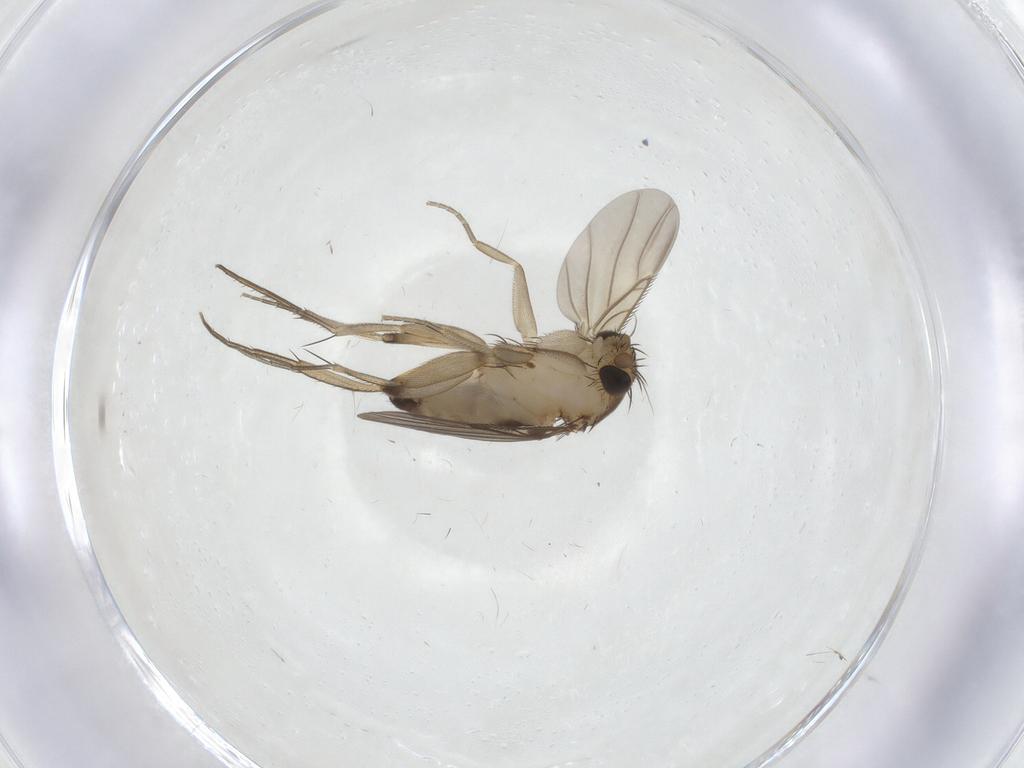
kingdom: Animalia
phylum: Arthropoda
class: Insecta
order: Diptera
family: Phoridae
